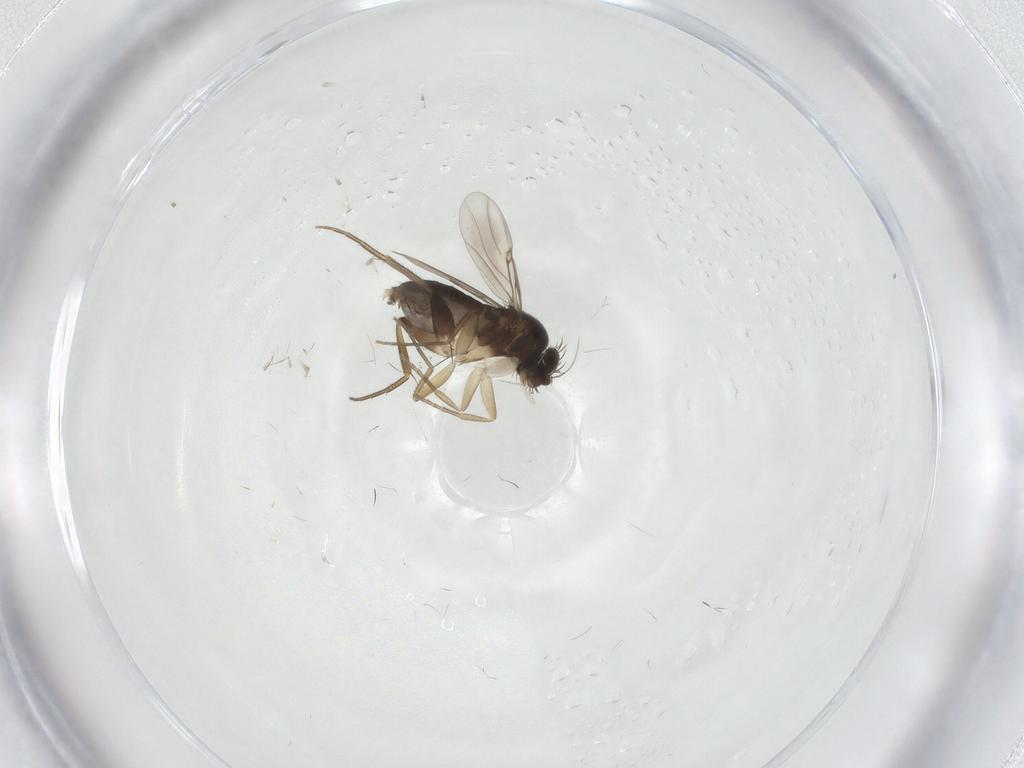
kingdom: Animalia
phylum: Arthropoda
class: Insecta
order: Diptera
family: Phoridae
